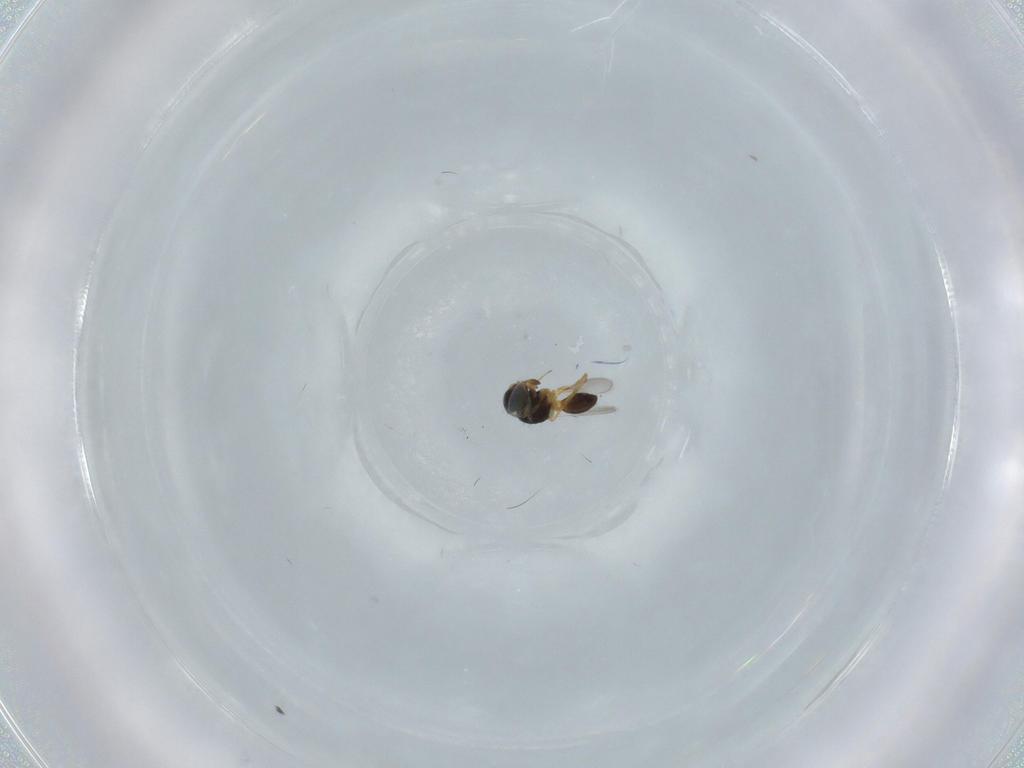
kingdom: Animalia
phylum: Arthropoda
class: Insecta
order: Hymenoptera
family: Scelionidae
